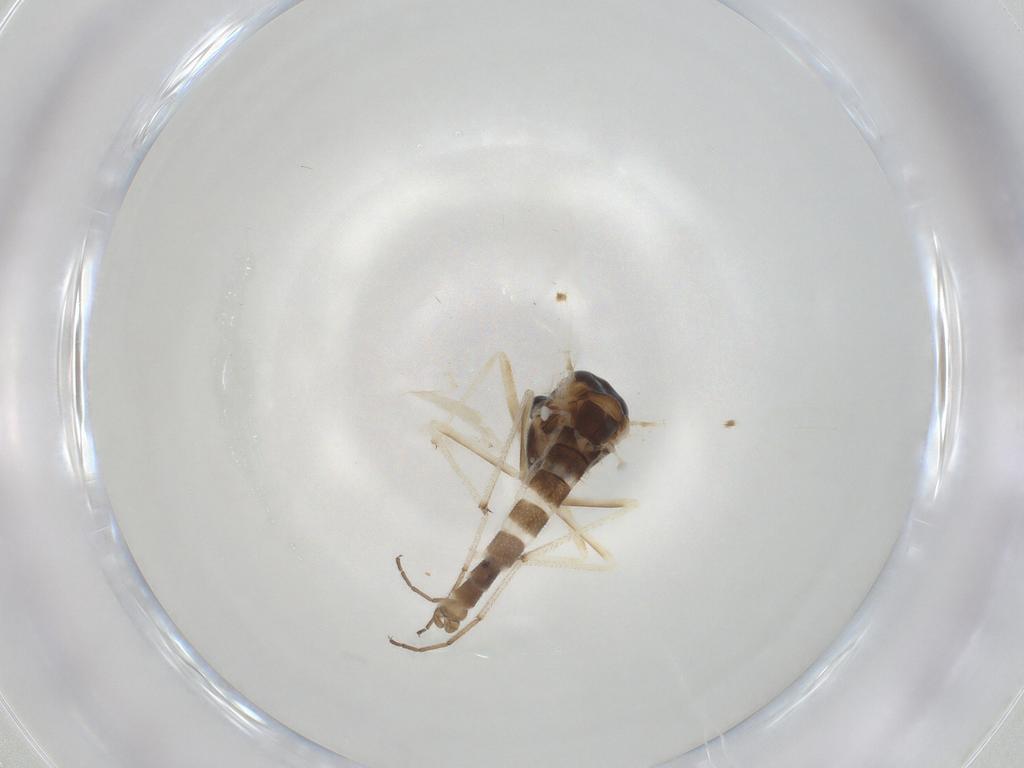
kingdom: Animalia
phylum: Arthropoda
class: Insecta
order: Diptera
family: Chironomidae
